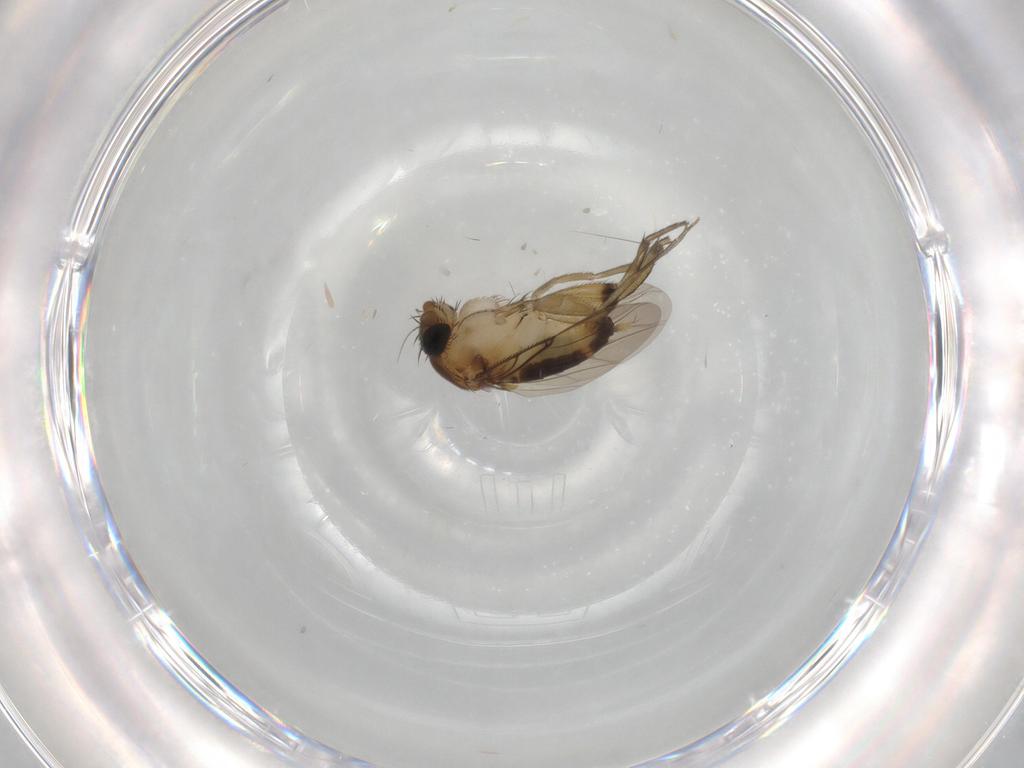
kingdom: Animalia
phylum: Arthropoda
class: Insecta
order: Diptera
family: Phoridae
